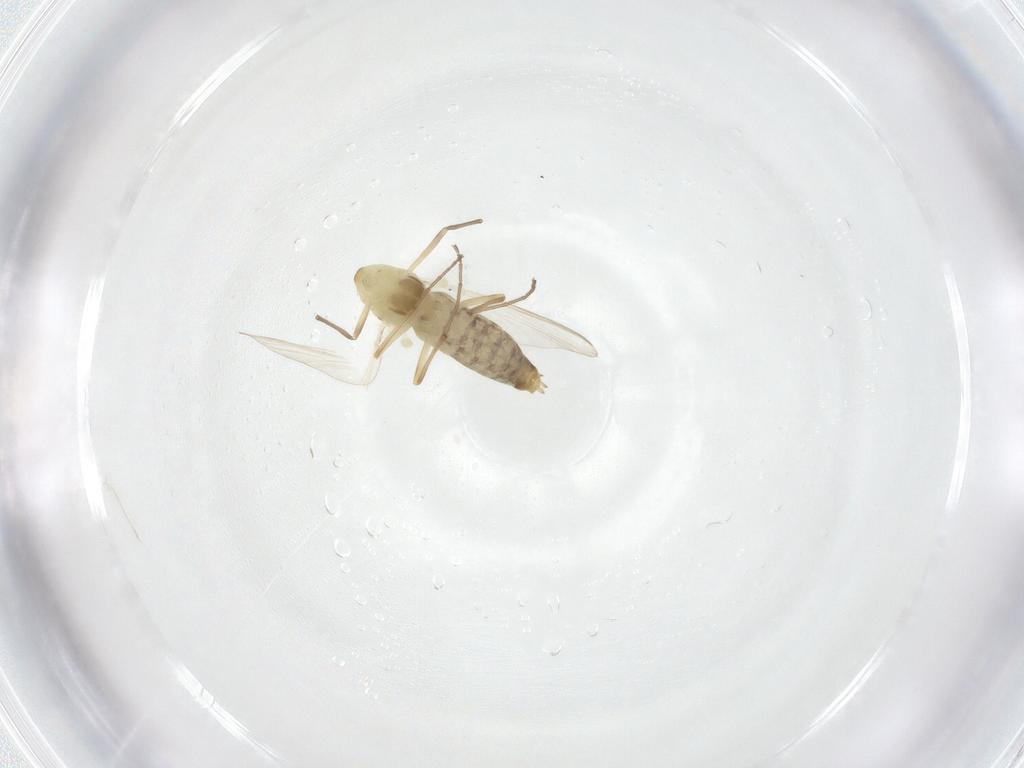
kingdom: Animalia
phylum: Arthropoda
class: Insecta
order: Diptera
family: Chironomidae
